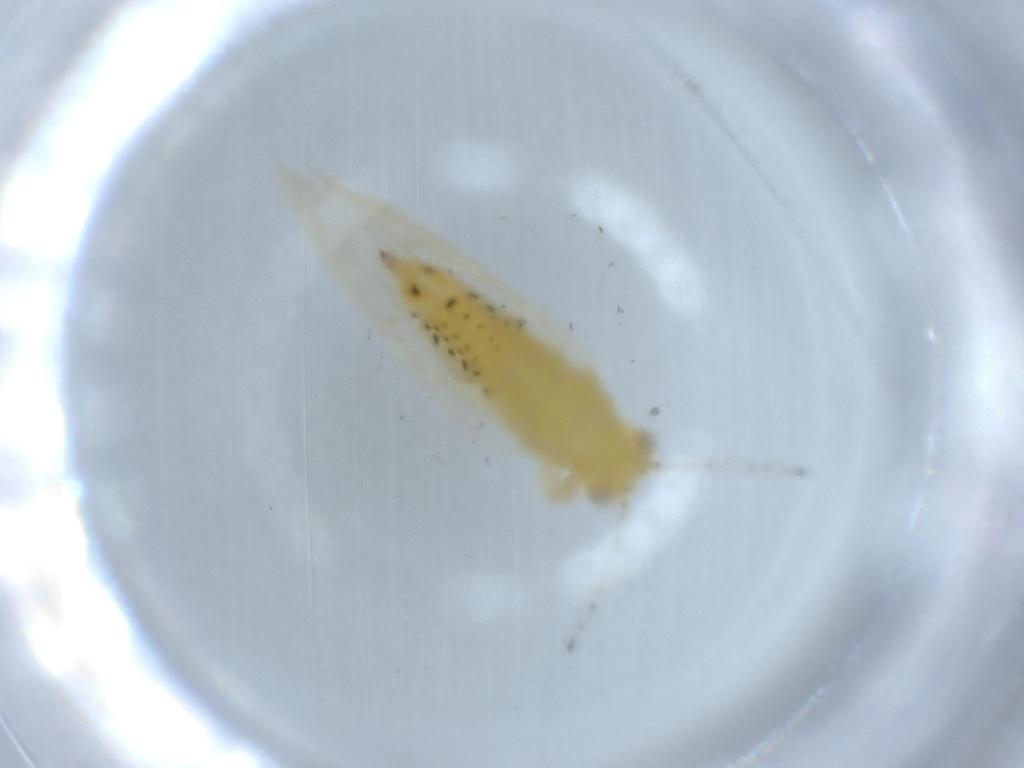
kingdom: Animalia
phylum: Arthropoda
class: Insecta
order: Hemiptera
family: Triozidae
